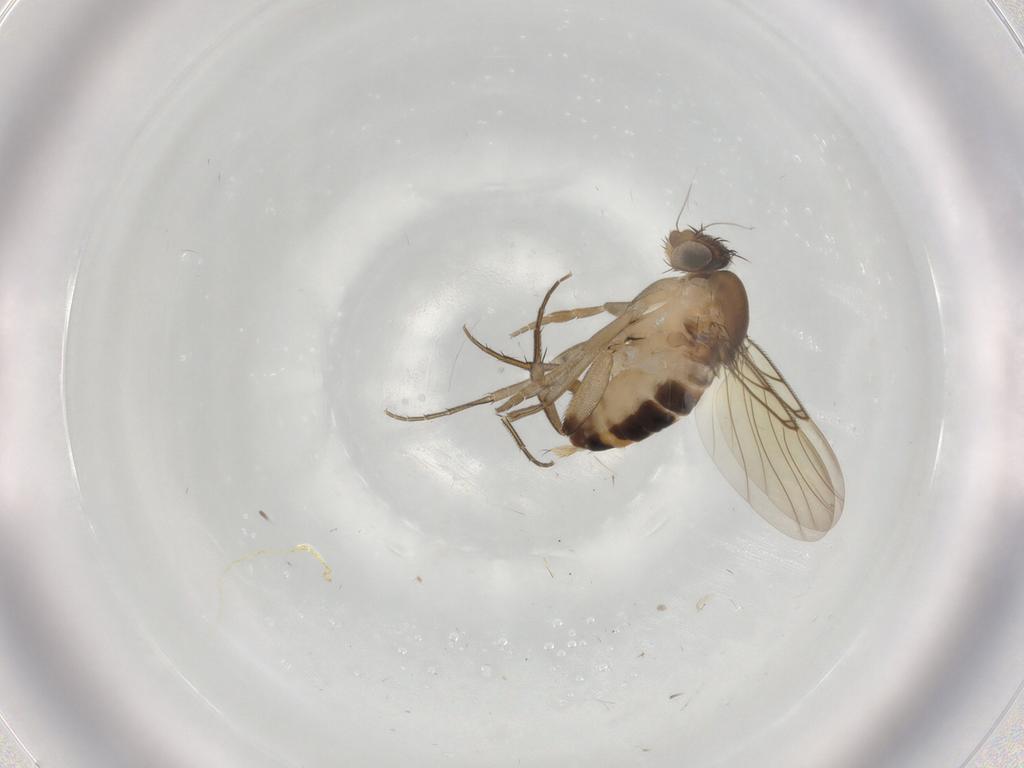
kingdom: Animalia
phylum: Arthropoda
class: Insecta
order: Diptera
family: Phoridae
